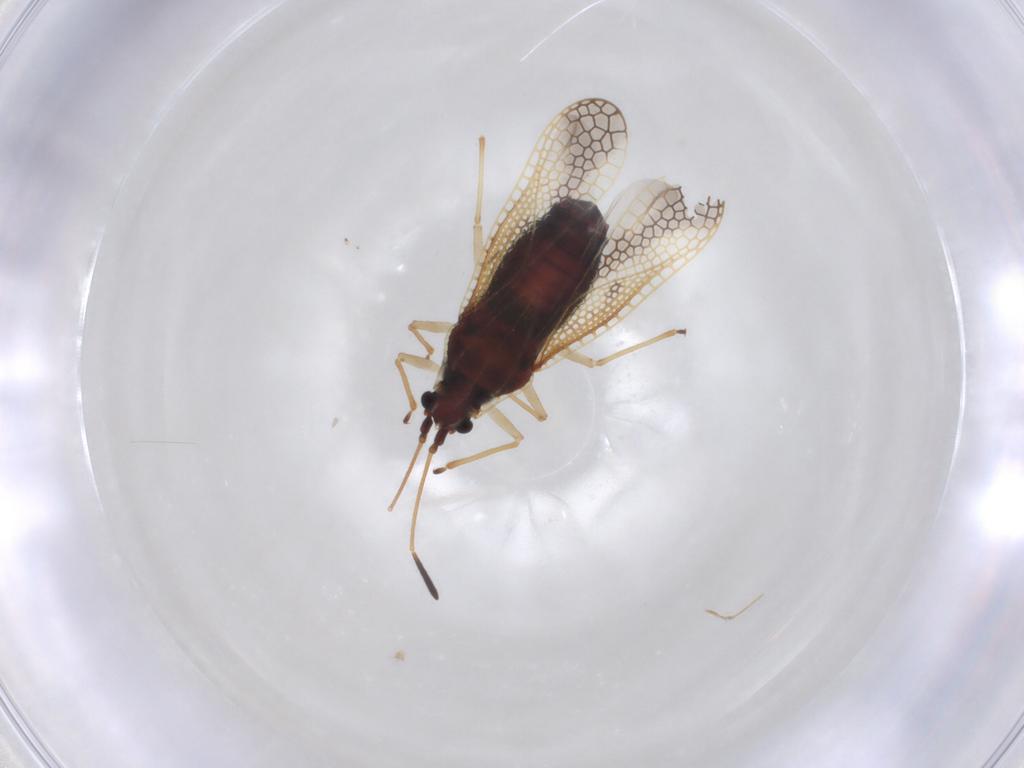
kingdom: Animalia
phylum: Arthropoda
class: Insecta
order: Hemiptera
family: Tingidae
